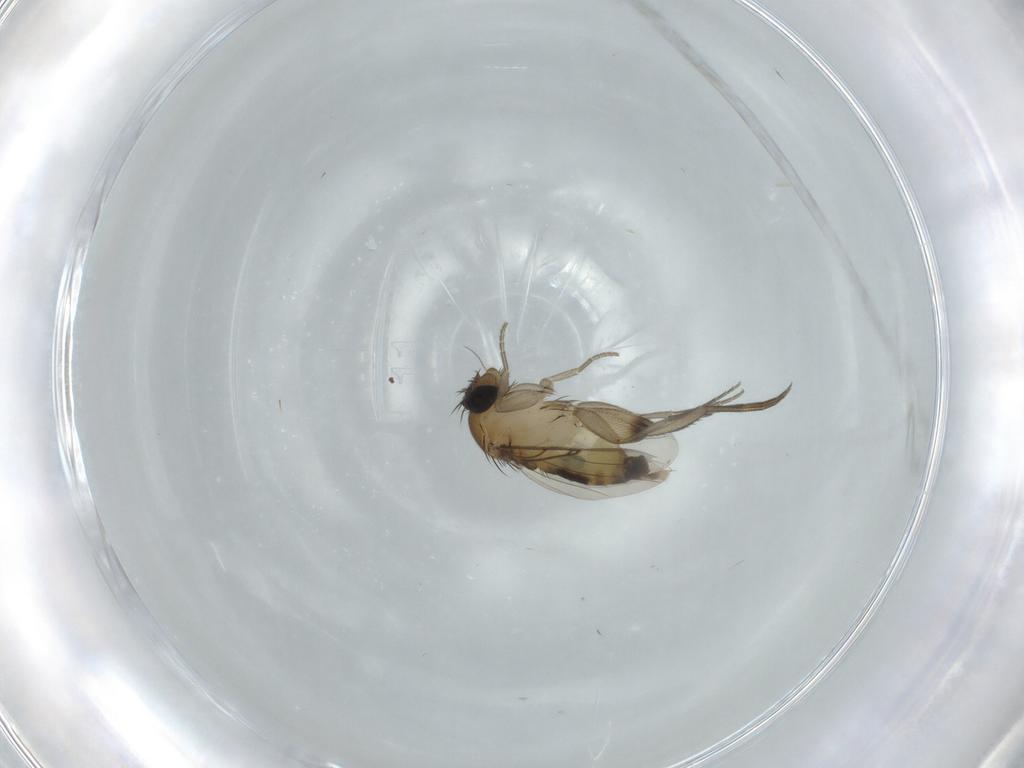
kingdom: Animalia
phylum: Arthropoda
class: Insecta
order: Diptera
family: Phoridae
